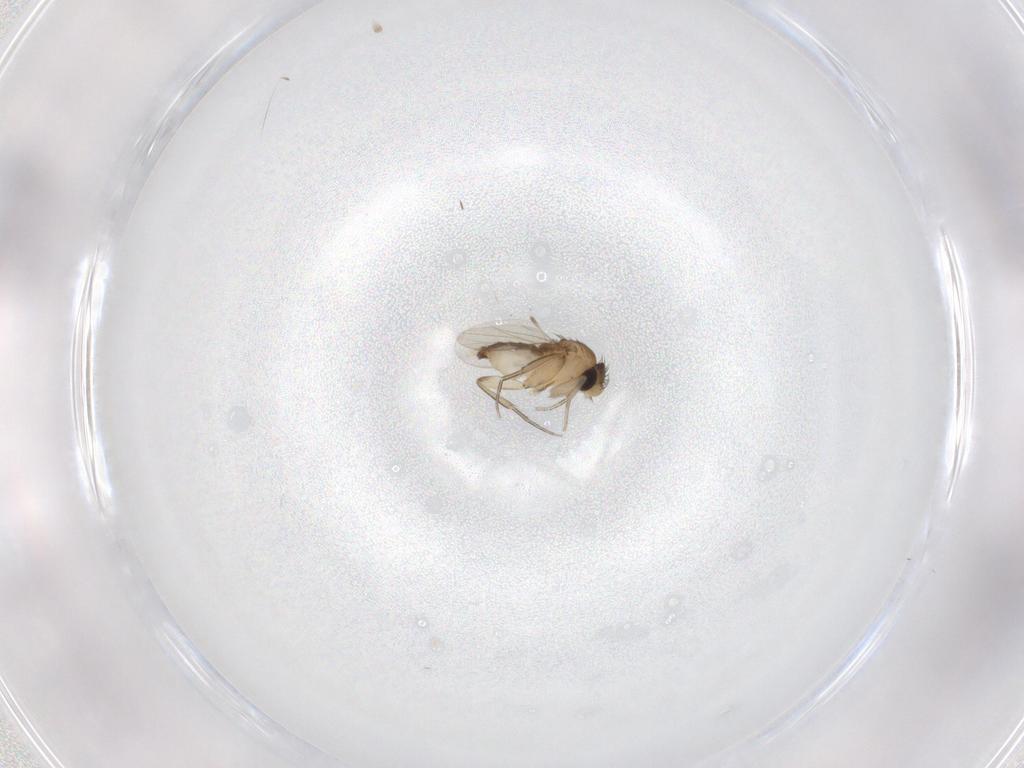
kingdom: Animalia
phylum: Arthropoda
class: Insecta
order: Diptera
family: Phoridae
